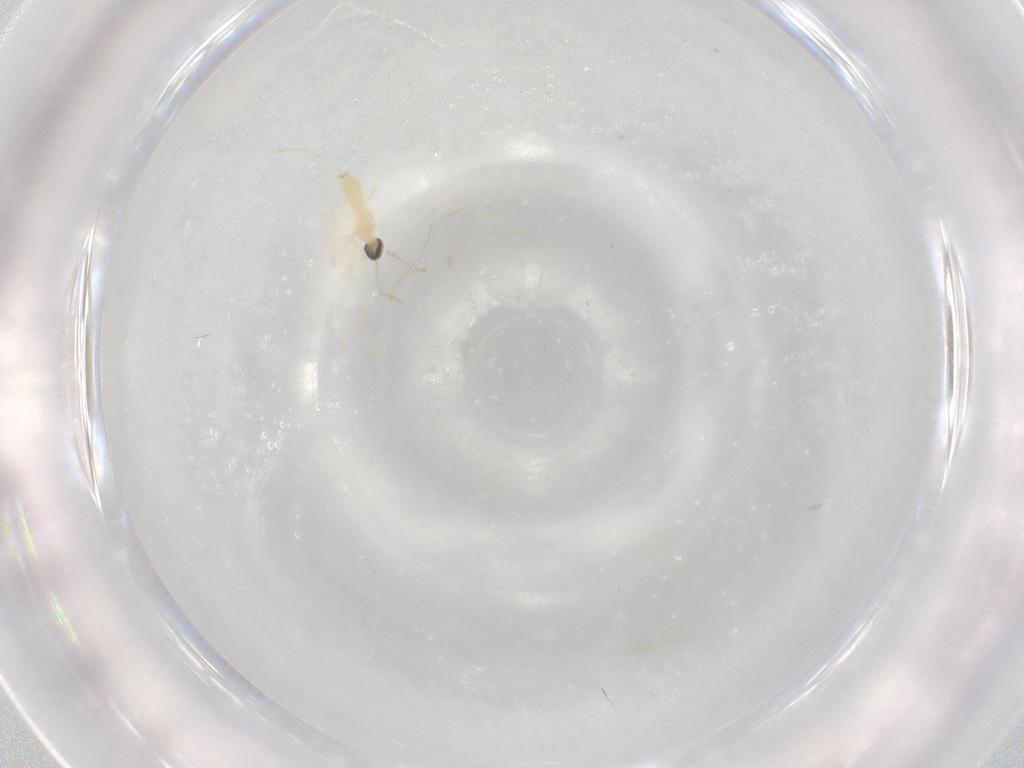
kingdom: Animalia
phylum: Arthropoda
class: Insecta
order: Diptera
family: Cecidomyiidae
